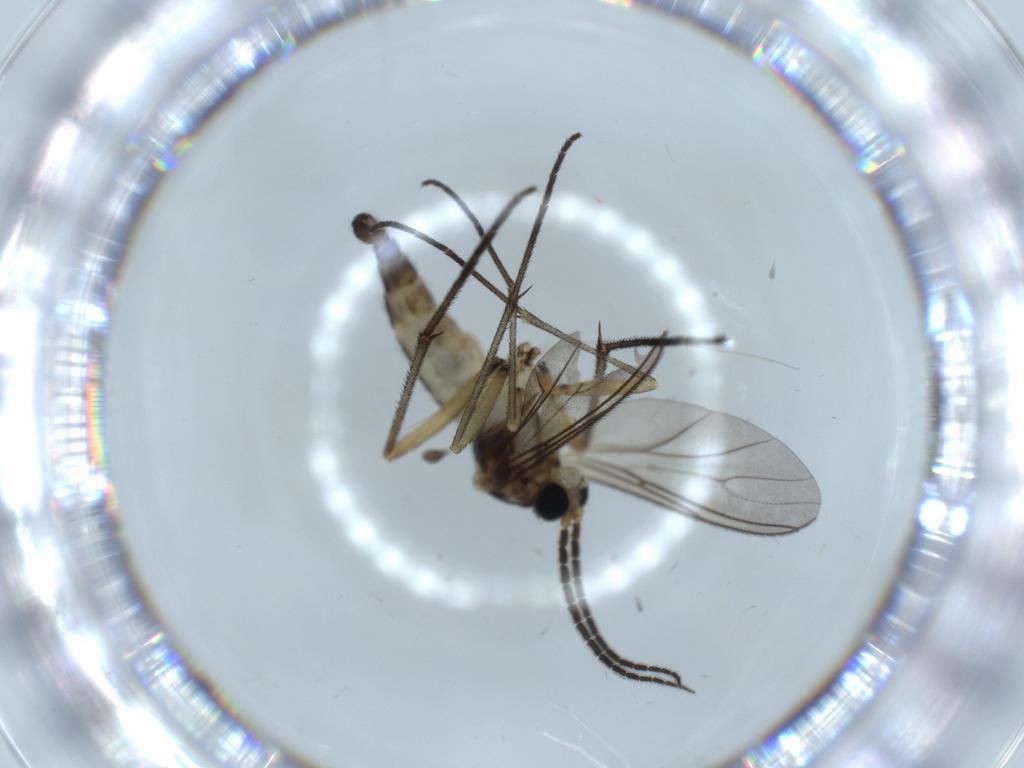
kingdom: Animalia
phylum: Arthropoda
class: Insecta
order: Diptera
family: Sciaridae
